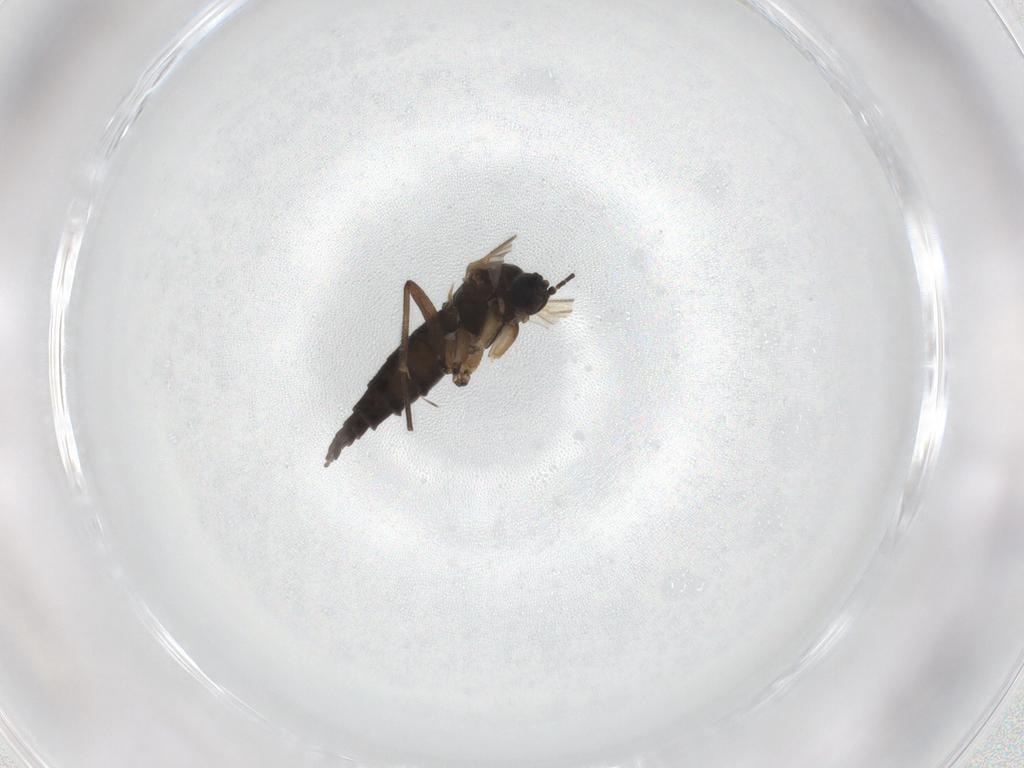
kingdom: Animalia
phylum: Arthropoda
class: Insecta
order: Diptera
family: Sciaridae
